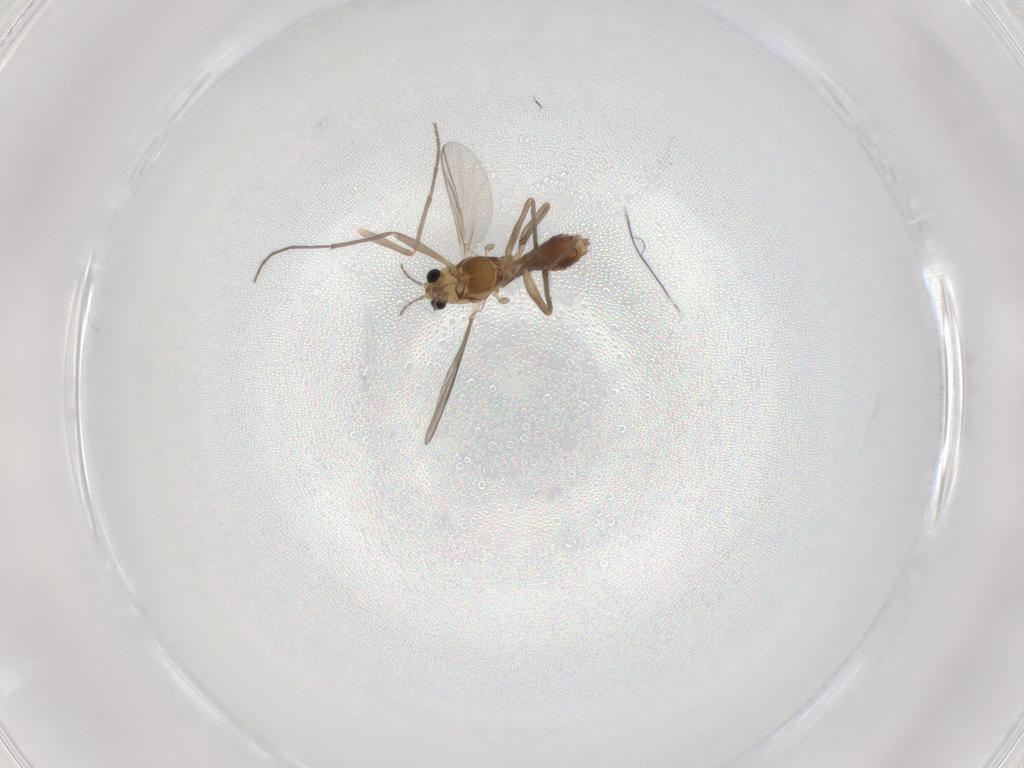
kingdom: Animalia
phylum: Arthropoda
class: Insecta
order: Diptera
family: Chironomidae
